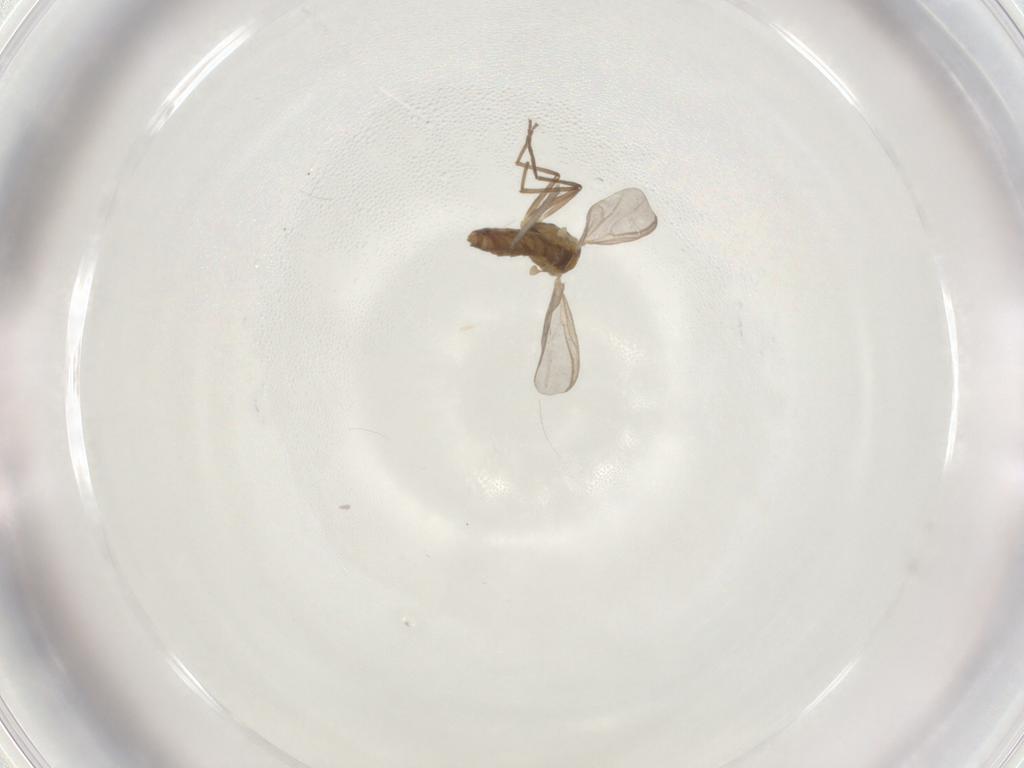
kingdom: Animalia
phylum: Arthropoda
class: Insecta
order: Diptera
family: Chironomidae
